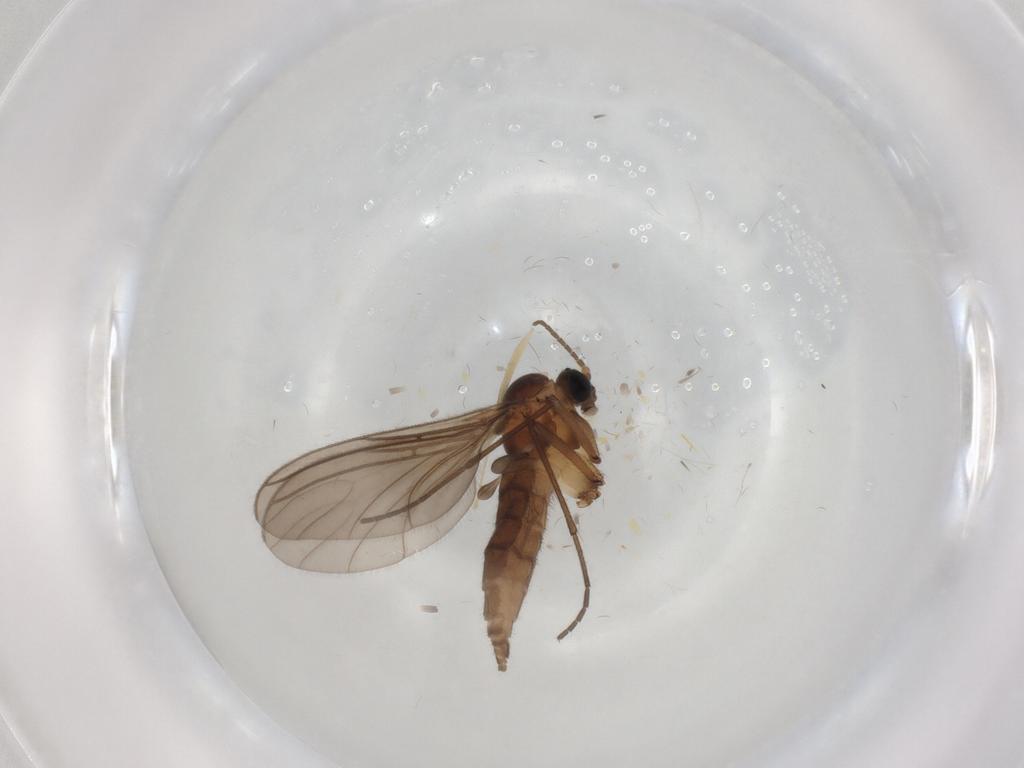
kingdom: Animalia
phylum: Arthropoda
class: Insecta
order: Diptera
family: Sciaridae
